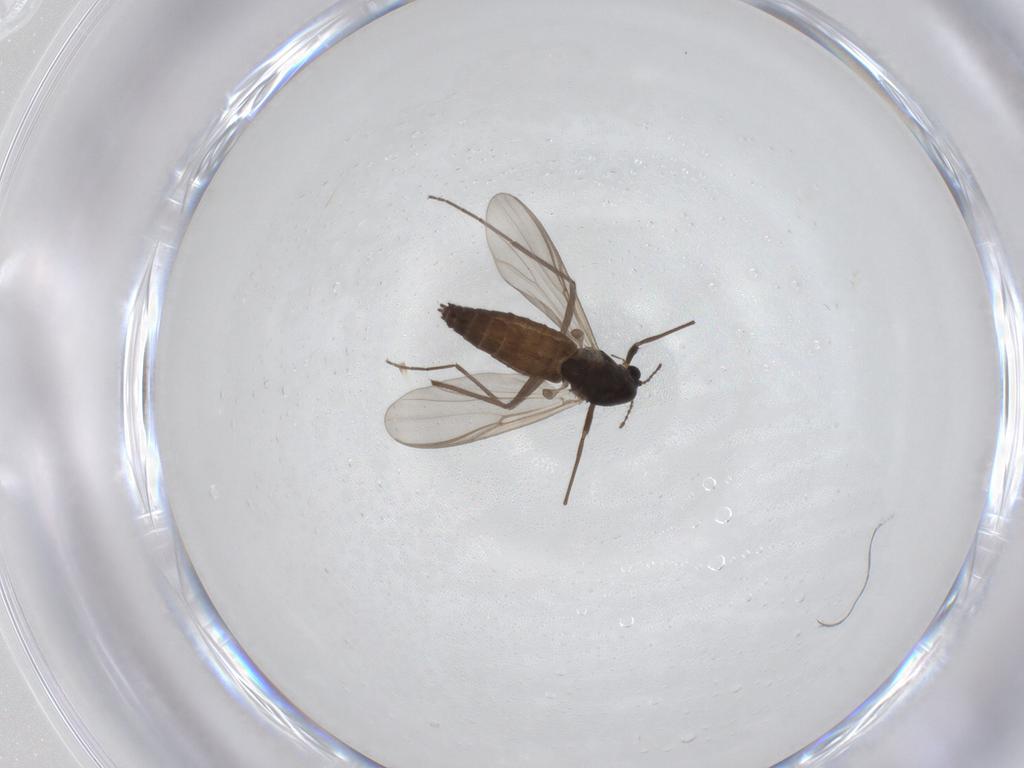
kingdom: Animalia
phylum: Arthropoda
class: Insecta
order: Diptera
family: Chironomidae
